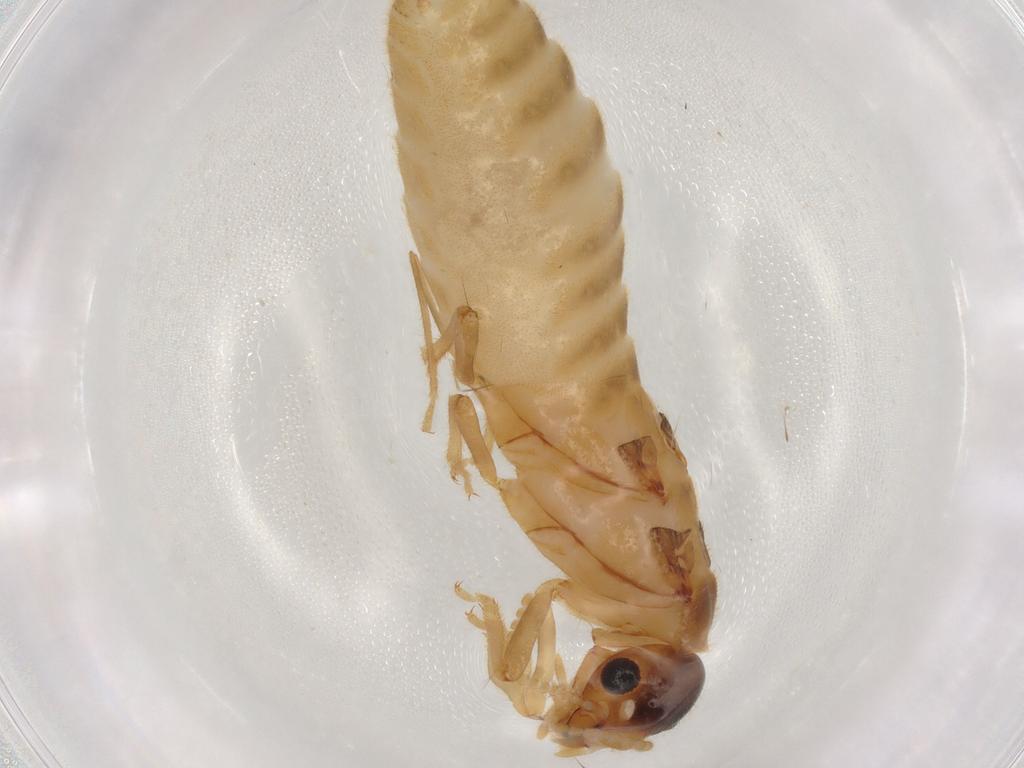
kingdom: Animalia
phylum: Arthropoda
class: Insecta
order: Blattodea
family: Termitidae
